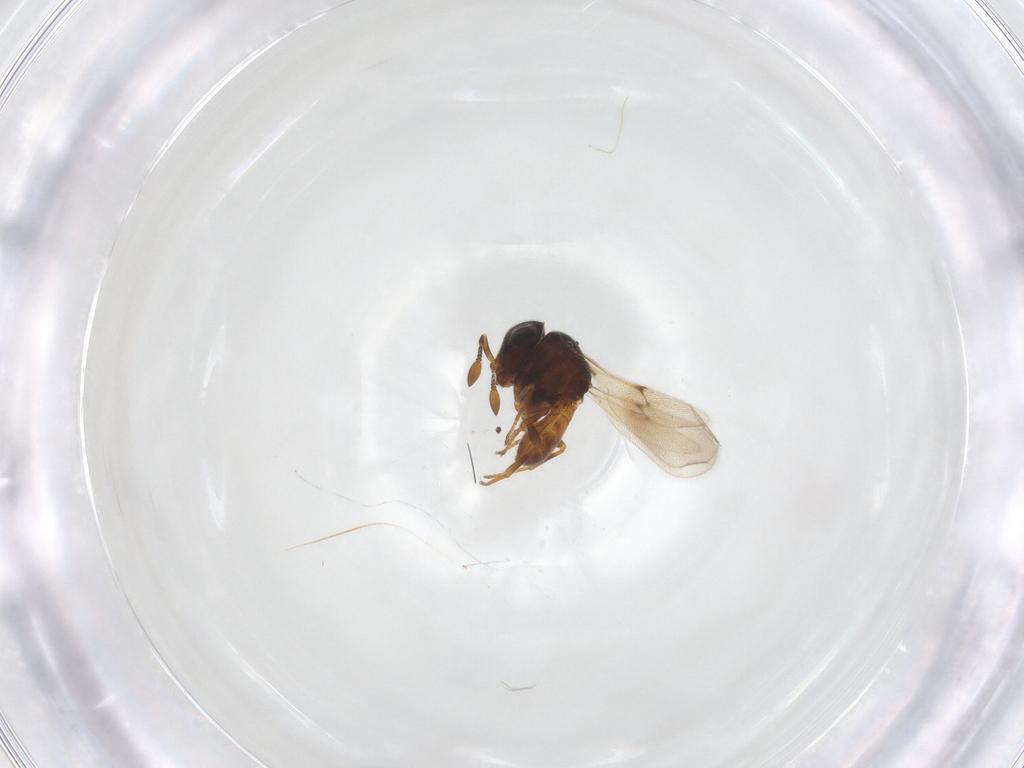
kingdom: Animalia
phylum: Arthropoda
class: Insecta
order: Hymenoptera
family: Scelionidae
